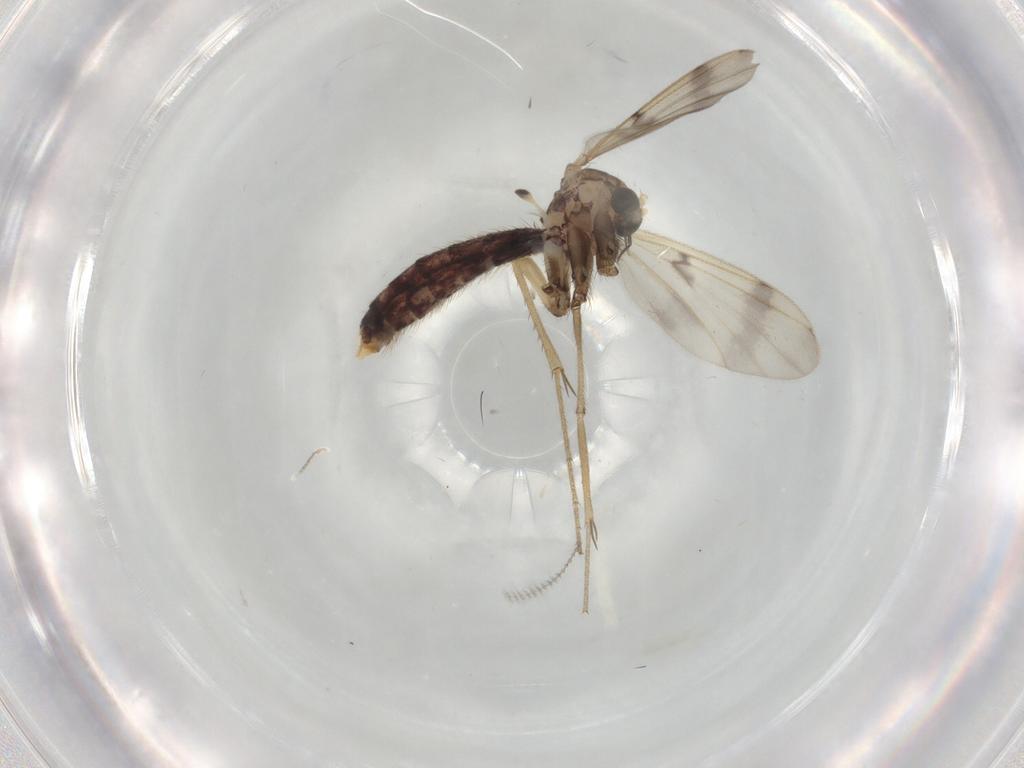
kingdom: Animalia
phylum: Arthropoda
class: Insecta
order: Diptera
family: Mycetophilidae
